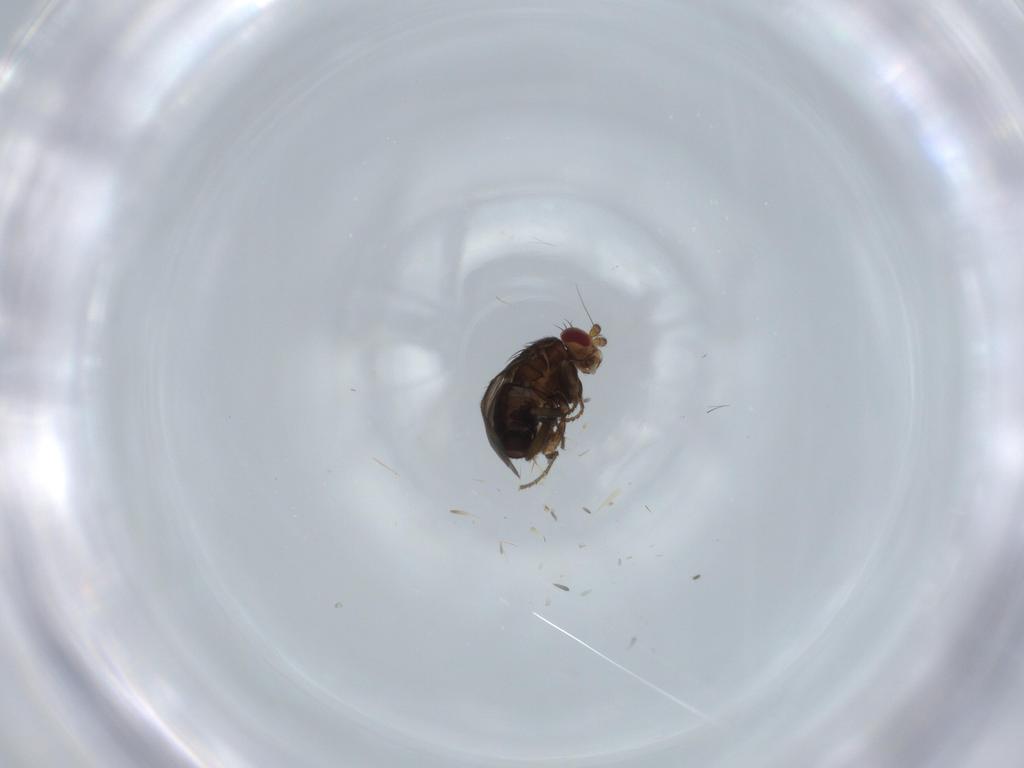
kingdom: Animalia
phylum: Arthropoda
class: Insecta
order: Diptera
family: Sphaeroceridae
